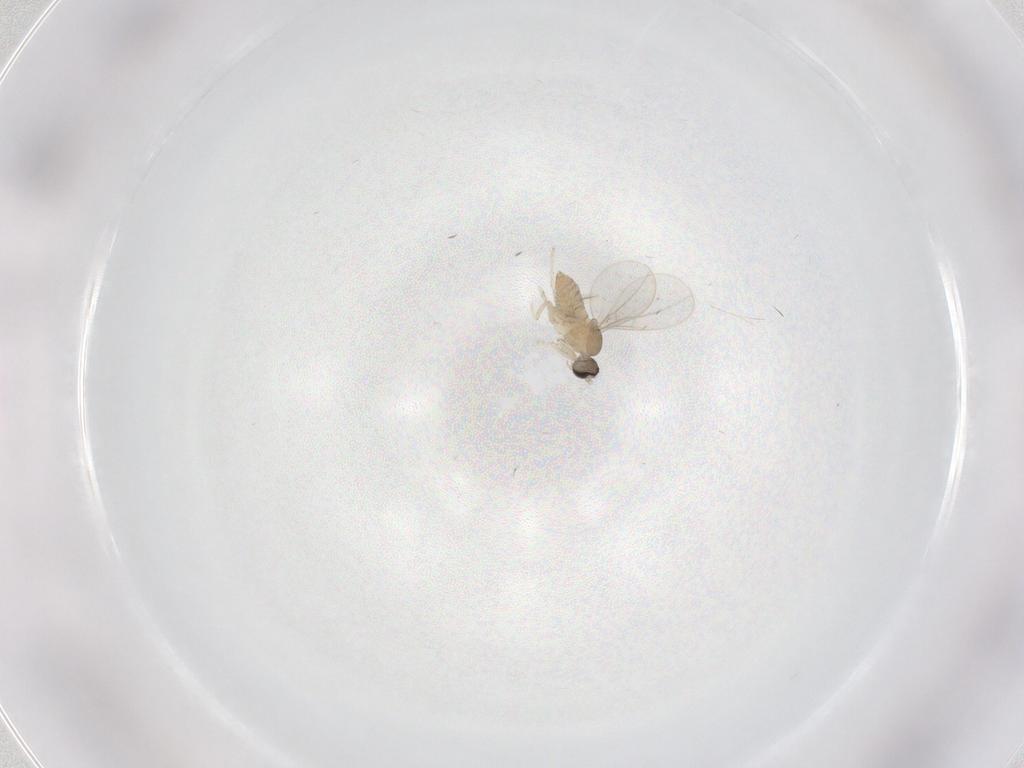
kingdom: Animalia
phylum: Arthropoda
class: Insecta
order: Diptera
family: Cecidomyiidae
